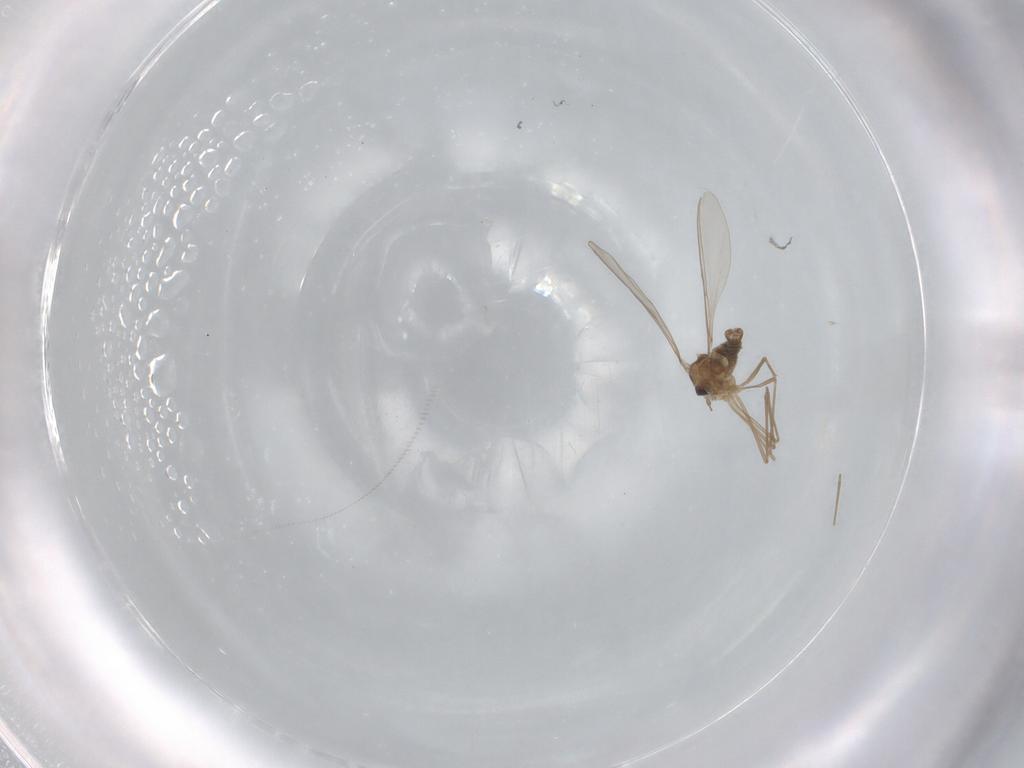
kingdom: Animalia
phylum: Arthropoda
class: Insecta
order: Diptera
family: Cecidomyiidae
